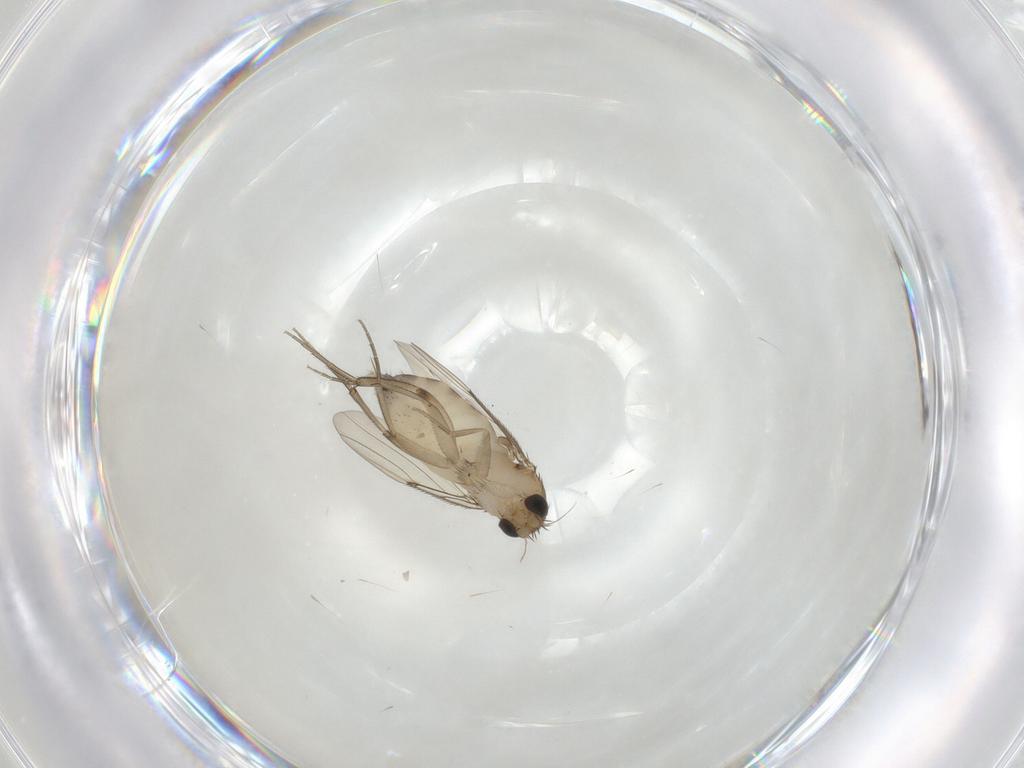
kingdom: Animalia
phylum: Arthropoda
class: Insecta
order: Diptera
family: Phoridae
